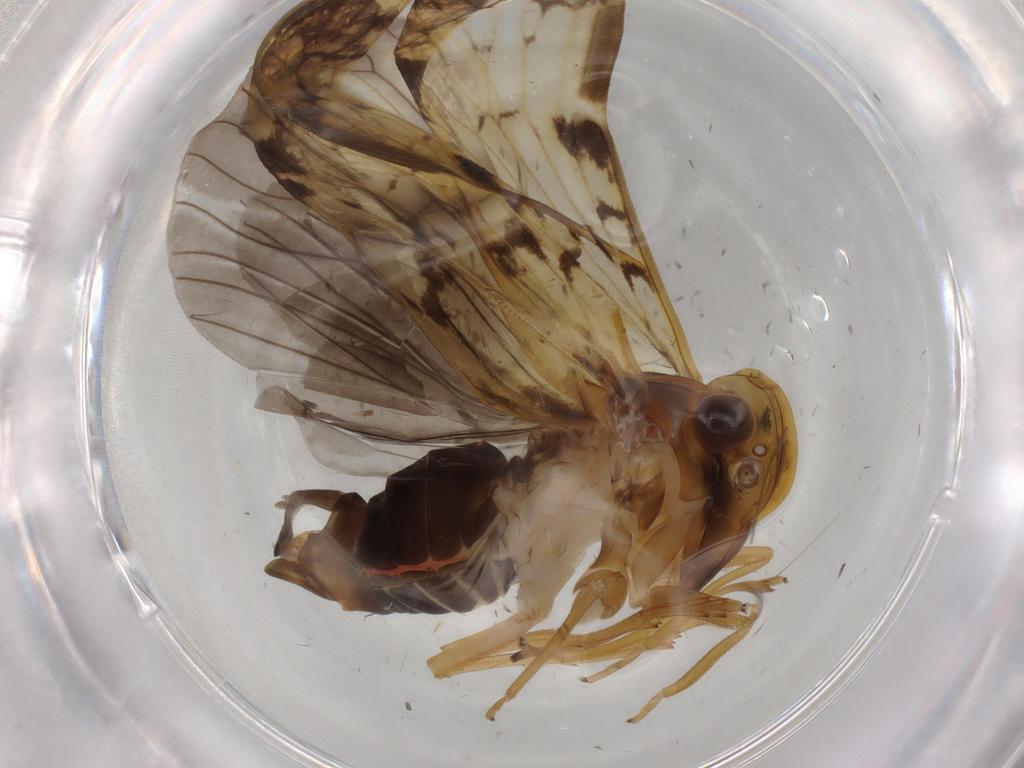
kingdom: Animalia
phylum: Arthropoda
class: Insecta
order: Hemiptera
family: Cixiidae
